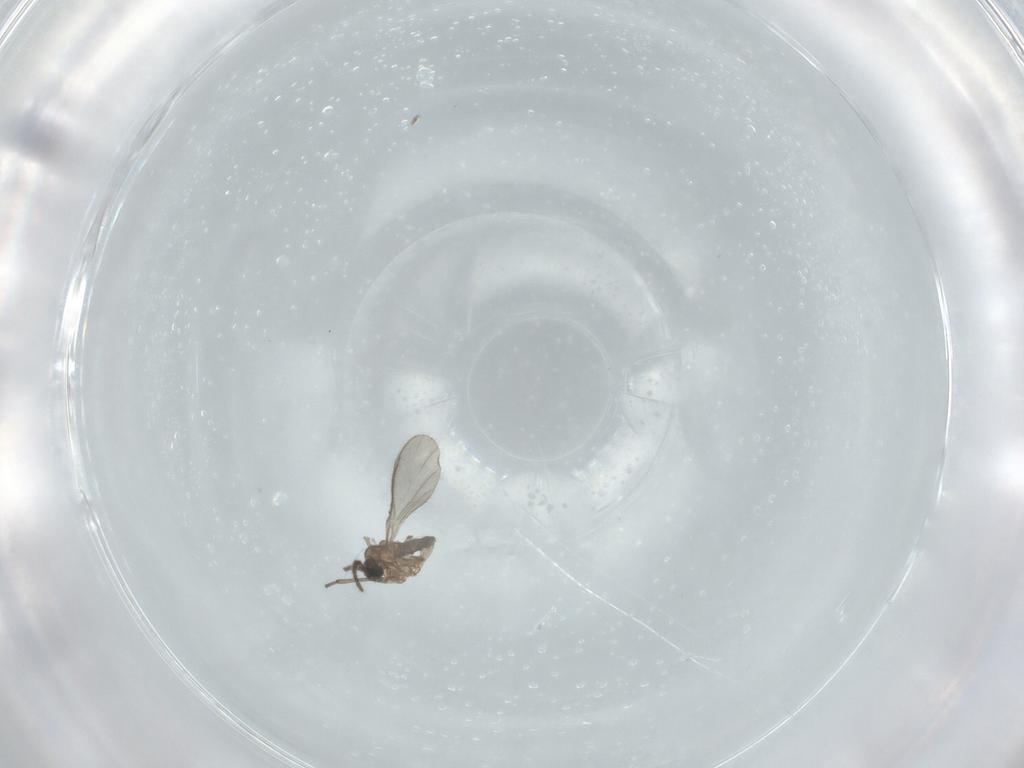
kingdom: Animalia
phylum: Arthropoda
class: Insecta
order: Diptera
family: Sciaridae
